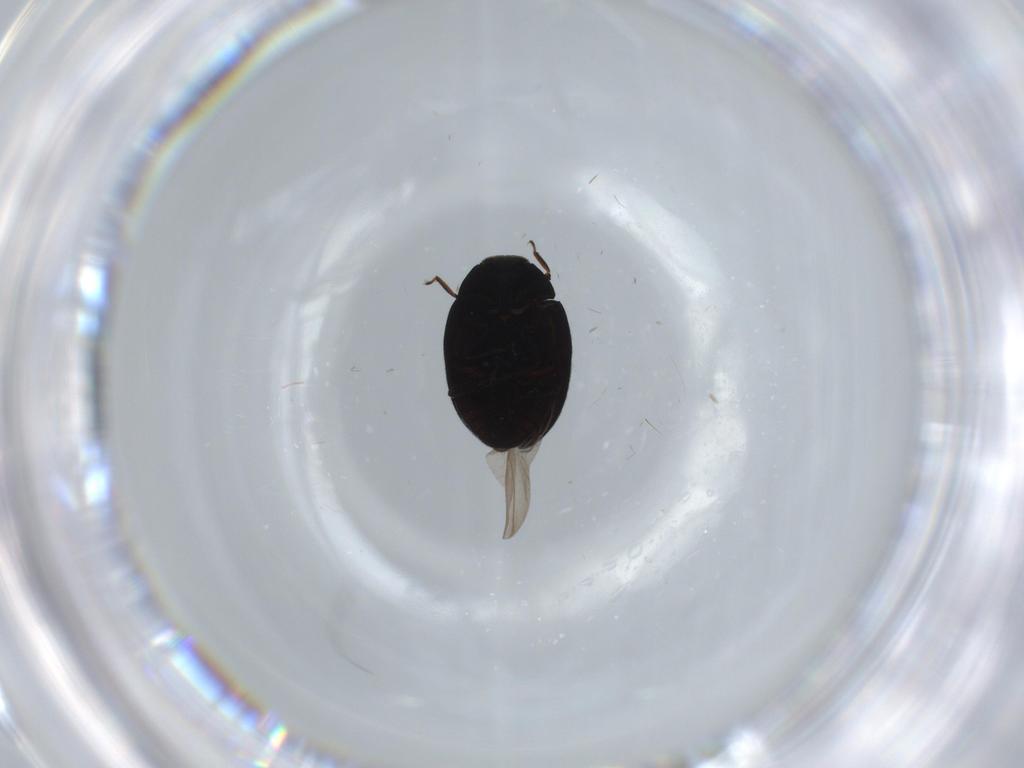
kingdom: Animalia
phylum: Arthropoda
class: Insecta
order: Coleoptera
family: Limnichidae
